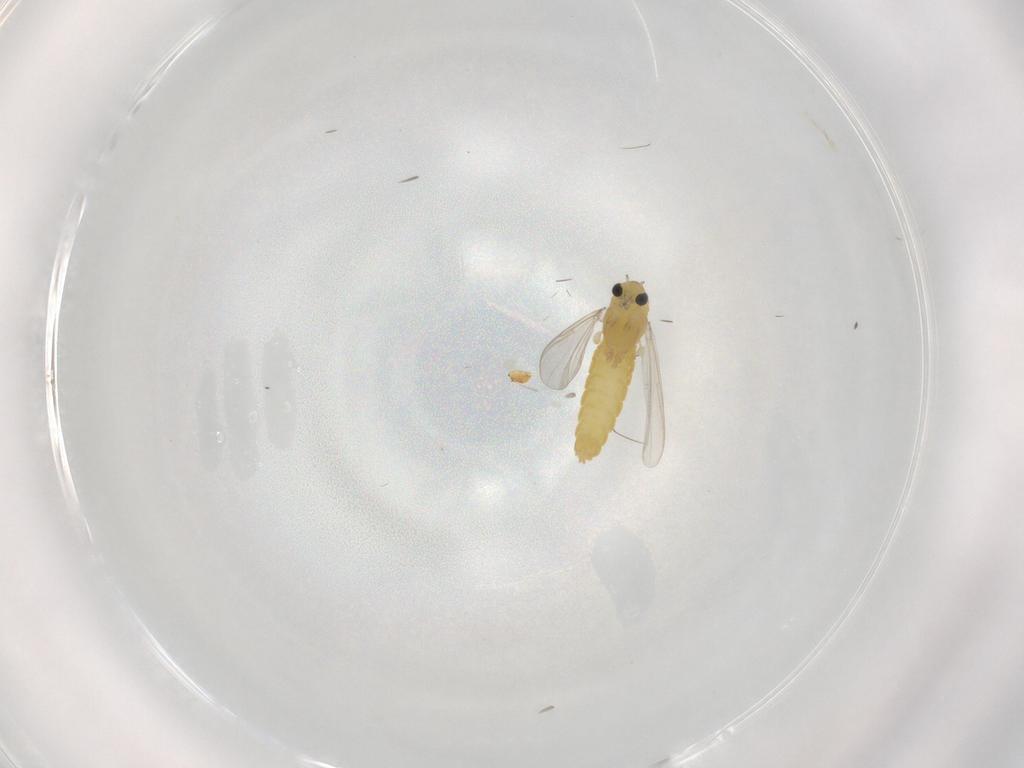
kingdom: Animalia
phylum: Arthropoda
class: Insecta
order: Diptera
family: Chironomidae
